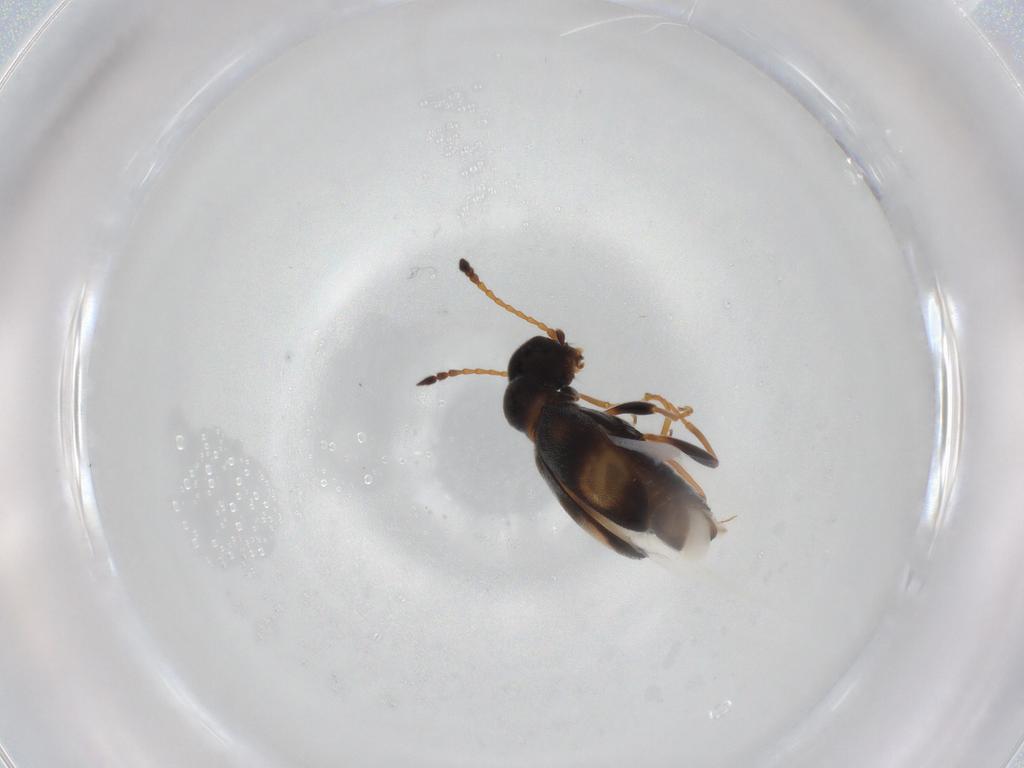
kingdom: Animalia
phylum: Arthropoda
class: Insecta
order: Coleoptera
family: Anthicidae
